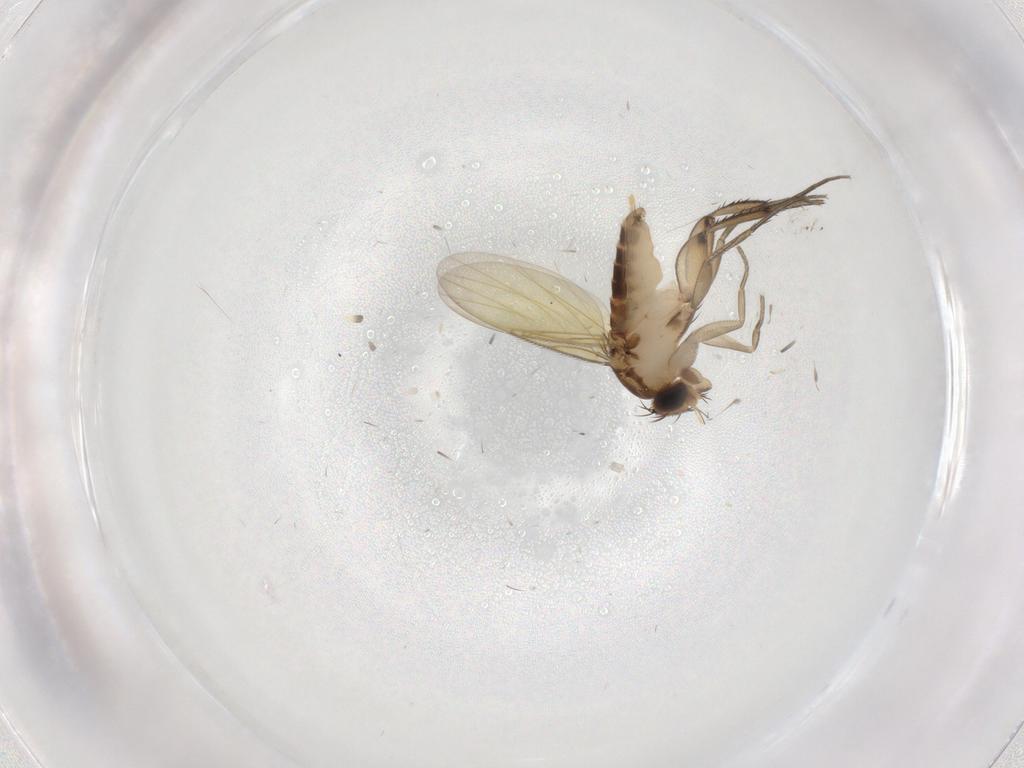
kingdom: Animalia
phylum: Arthropoda
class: Insecta
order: Diptera
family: Phoridae
